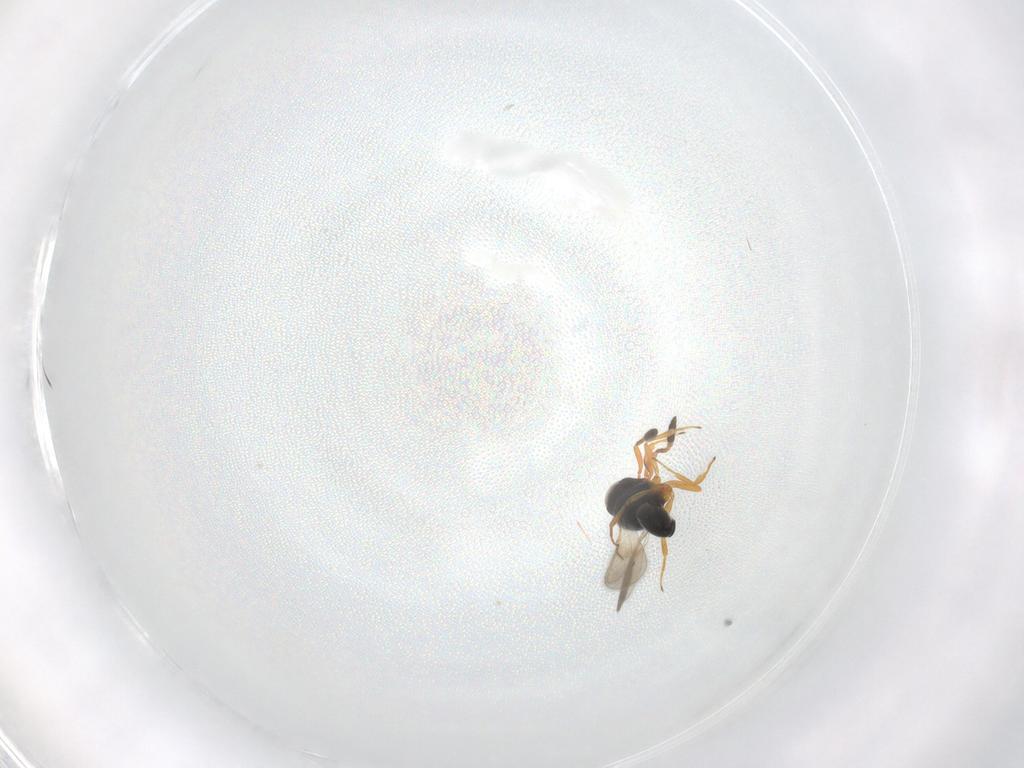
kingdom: Animalia
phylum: Arthropoda
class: Insecta
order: Hymenoptera
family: Scelionidae
